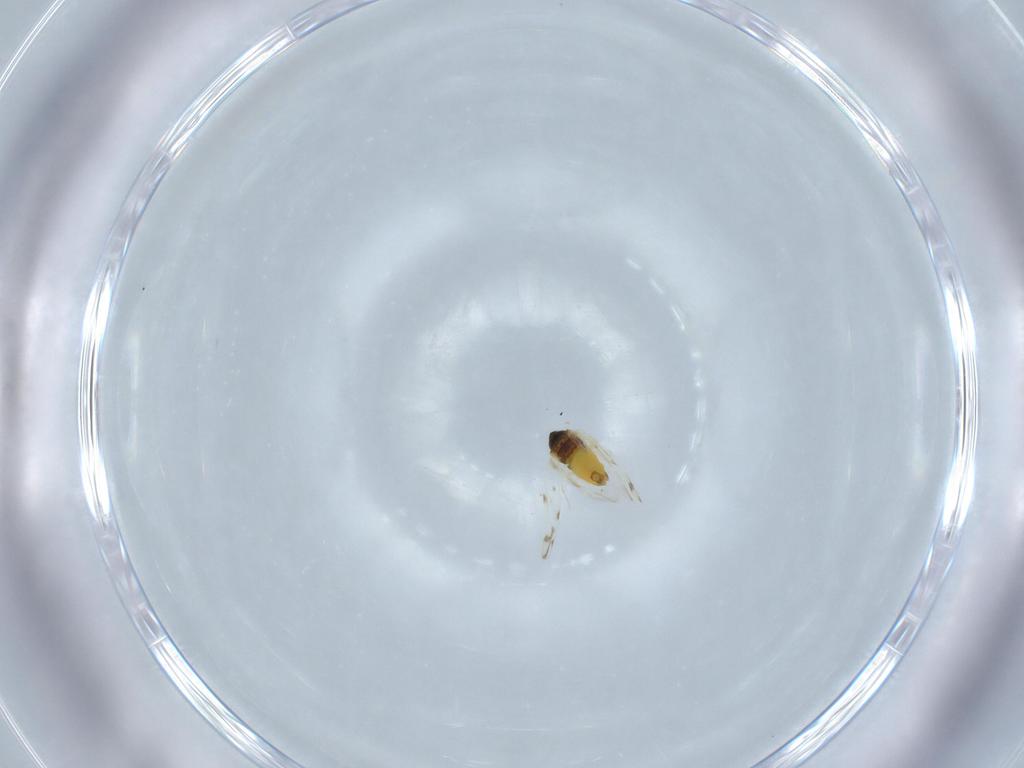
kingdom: Animalia
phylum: Arthropoda
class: Insecta
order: Hemiptera
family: Aleyrodidae
